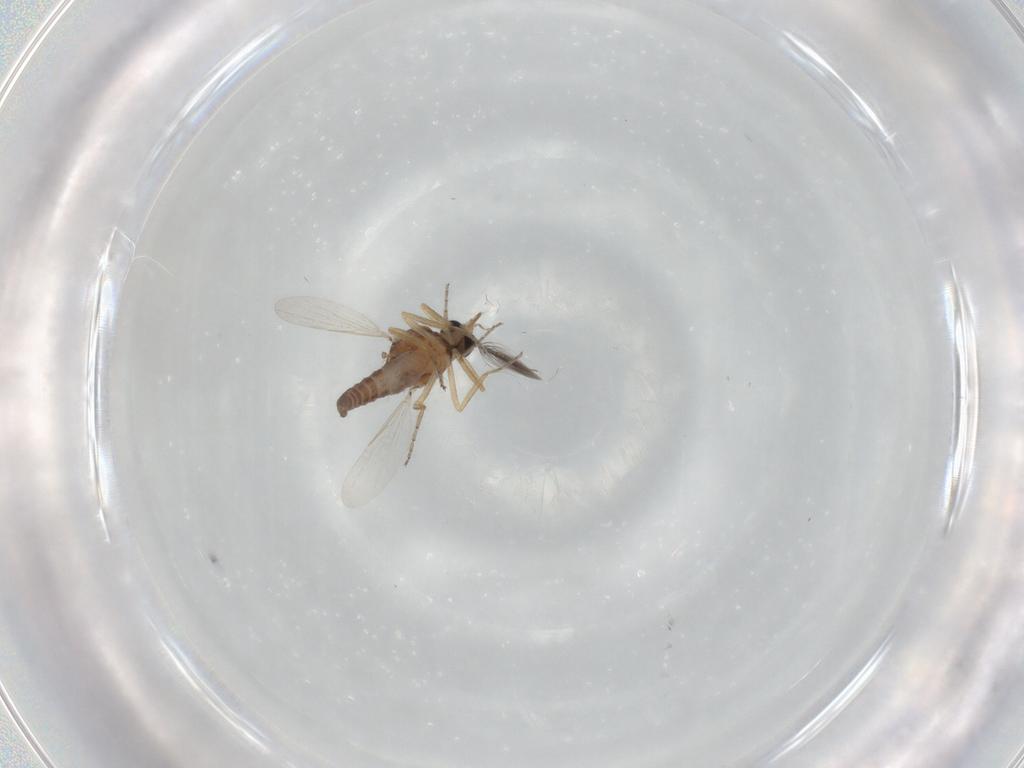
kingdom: Animalia
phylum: Arthropoda
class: Insecta
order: Diptera
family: Ceratopogonidae
